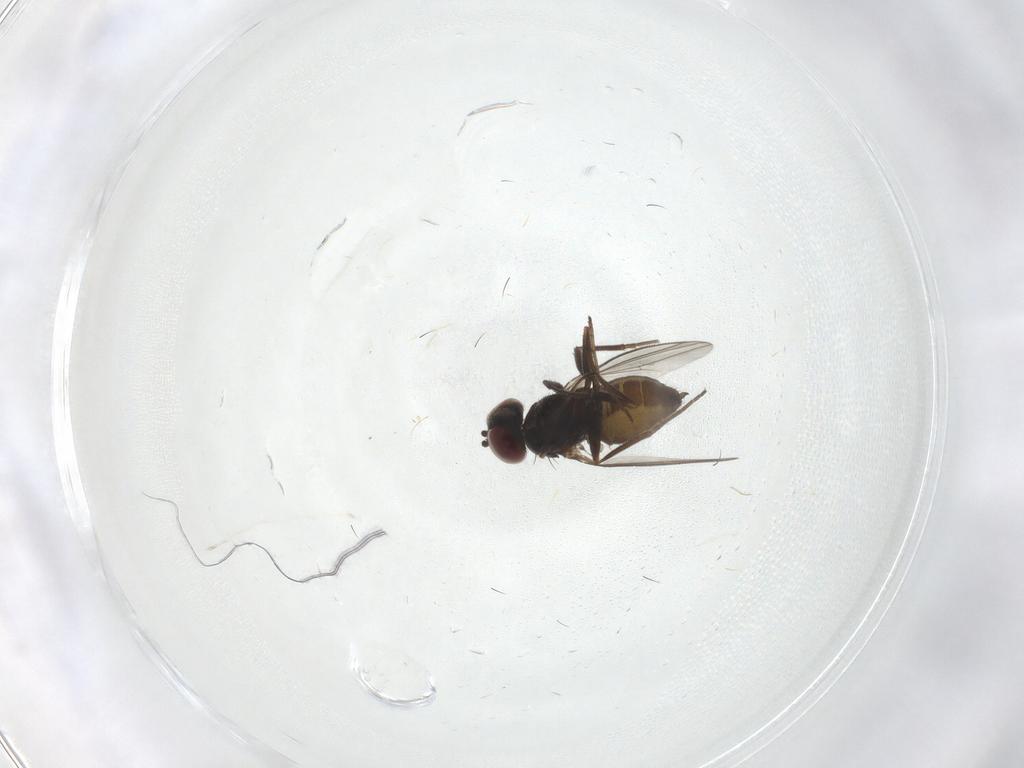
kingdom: Animalia
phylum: Arthropoda
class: Insecta
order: Diptera
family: Dolichopodidae
